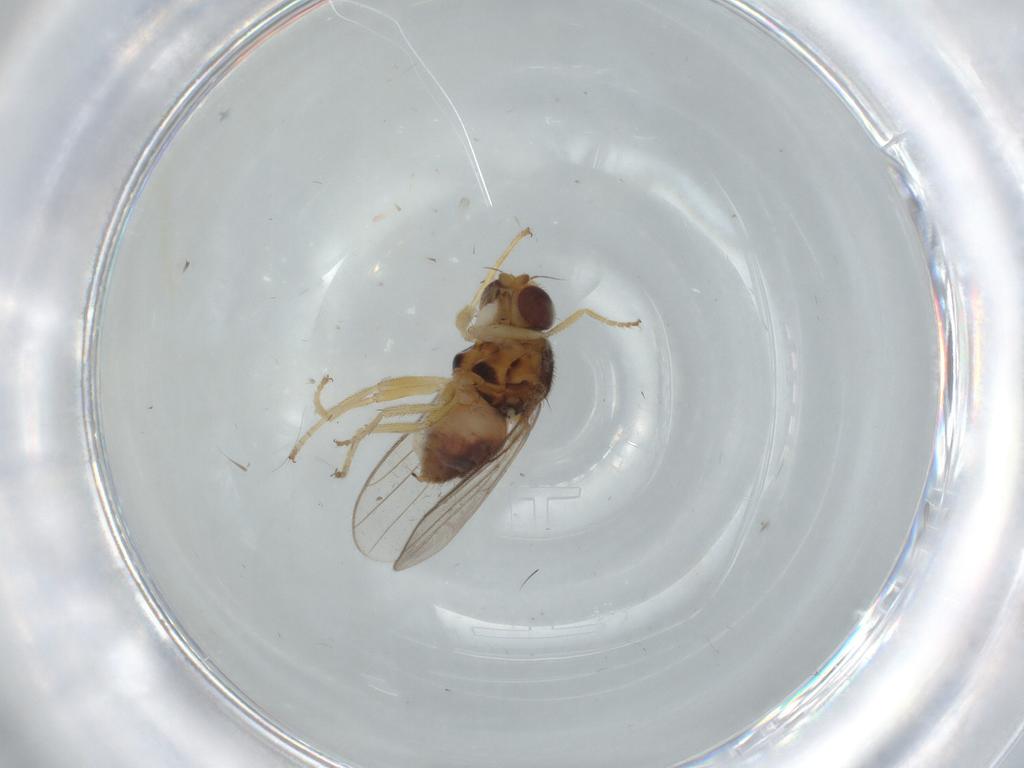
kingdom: Animalia
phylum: Arthropoda
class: Insecta
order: Diptera
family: Chloropidae
